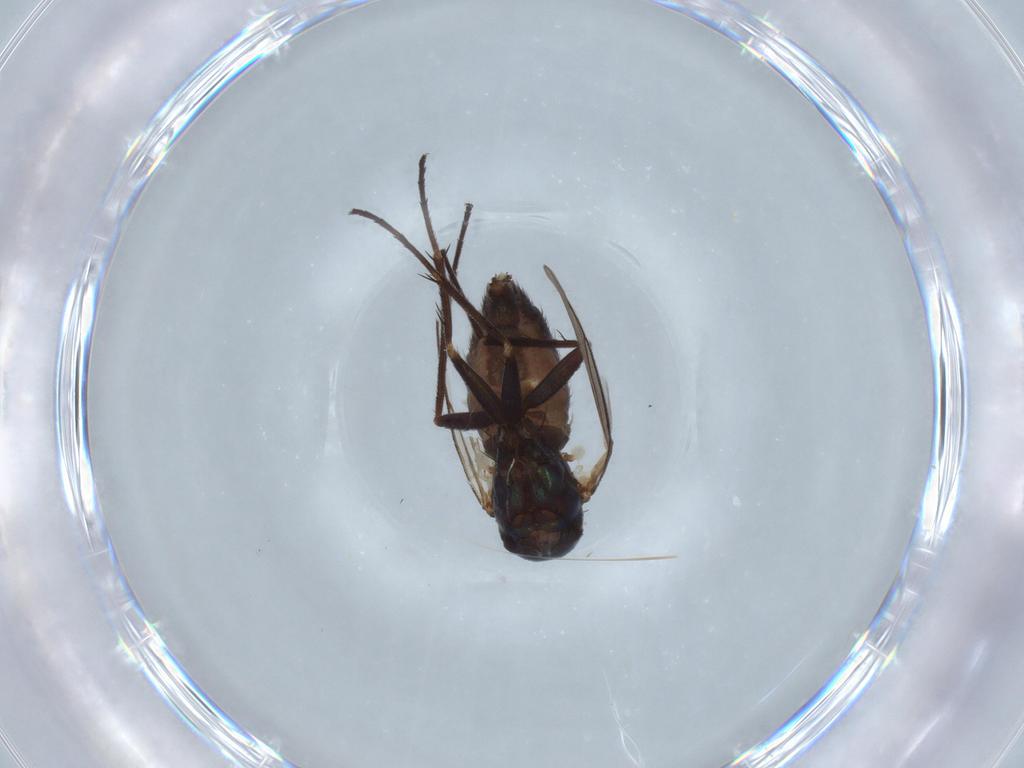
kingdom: Animalia
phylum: Arthropoda
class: Insecta
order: Diptera
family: Dolichopodidae
